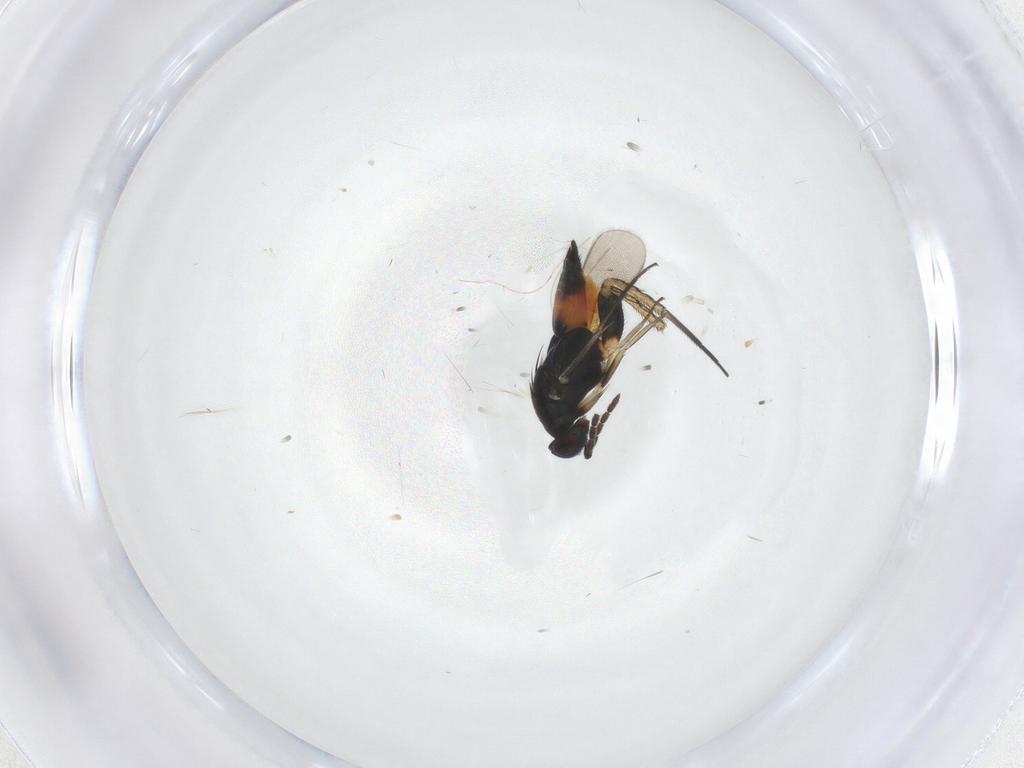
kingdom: Animalia
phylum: Arthropoda
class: Insecta
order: Hymenoptera
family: Eulophidae
